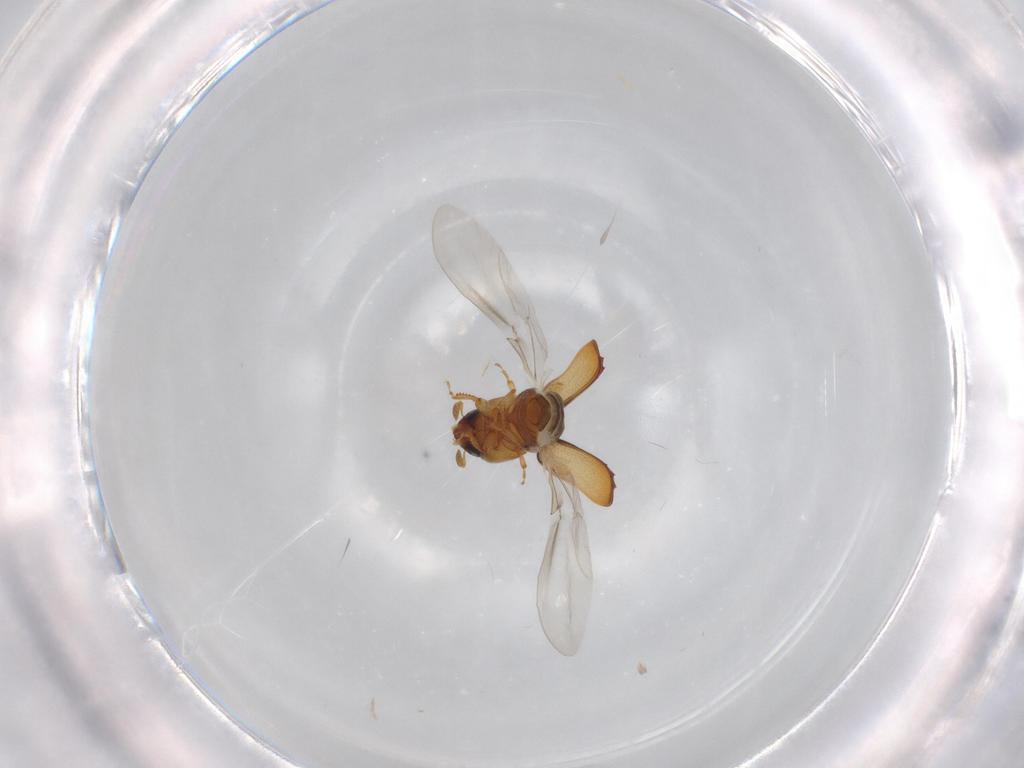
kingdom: Animalia
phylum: Arthropoda
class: Insecta
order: Coleoptera
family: Curculionidae
